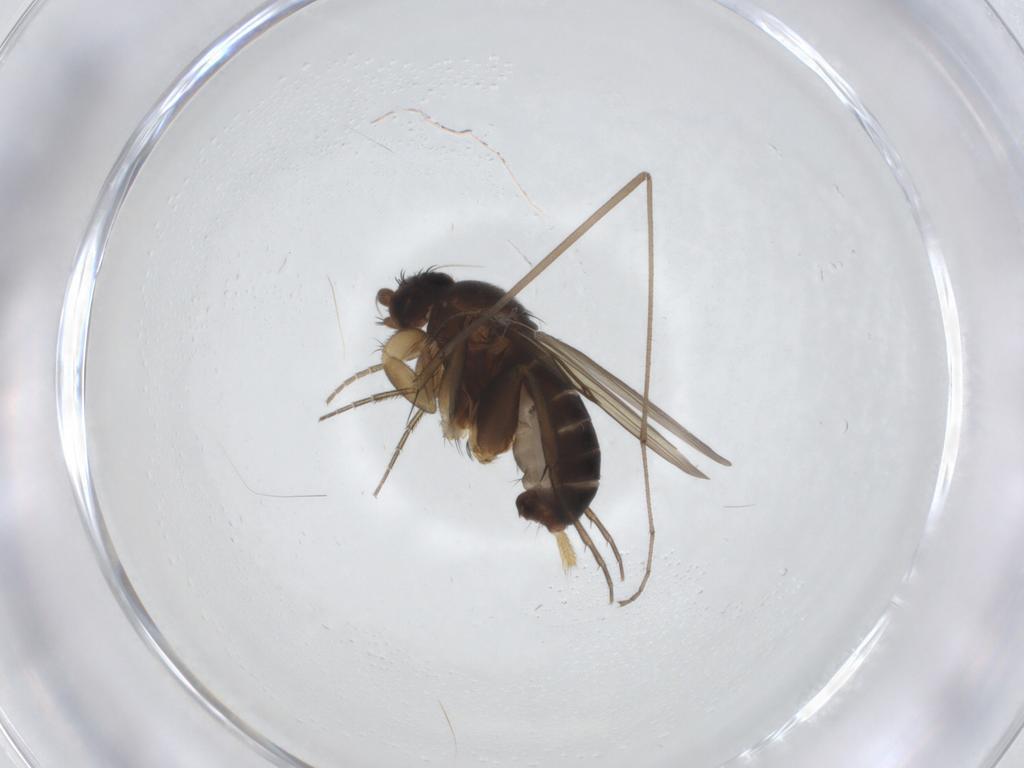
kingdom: Animalia
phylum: Arthropoda
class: Insecta
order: Diptera
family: Limoniidae
